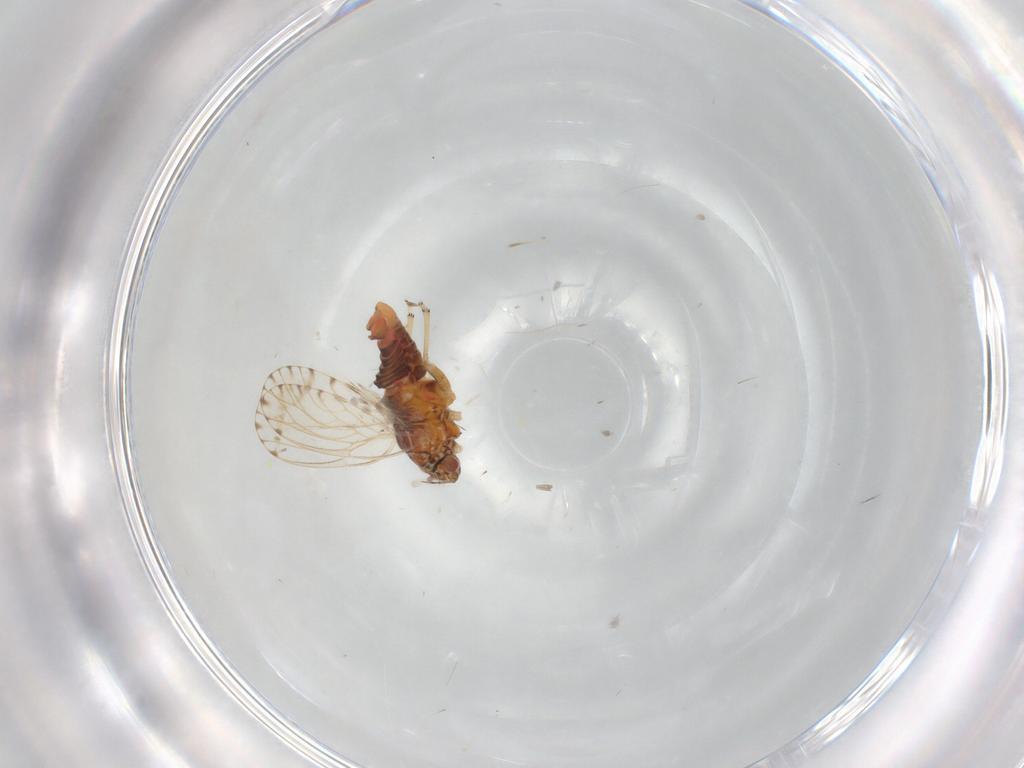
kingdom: Animalia
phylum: Arthropoda
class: Insecta
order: Hemiptera
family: Psyllidae
